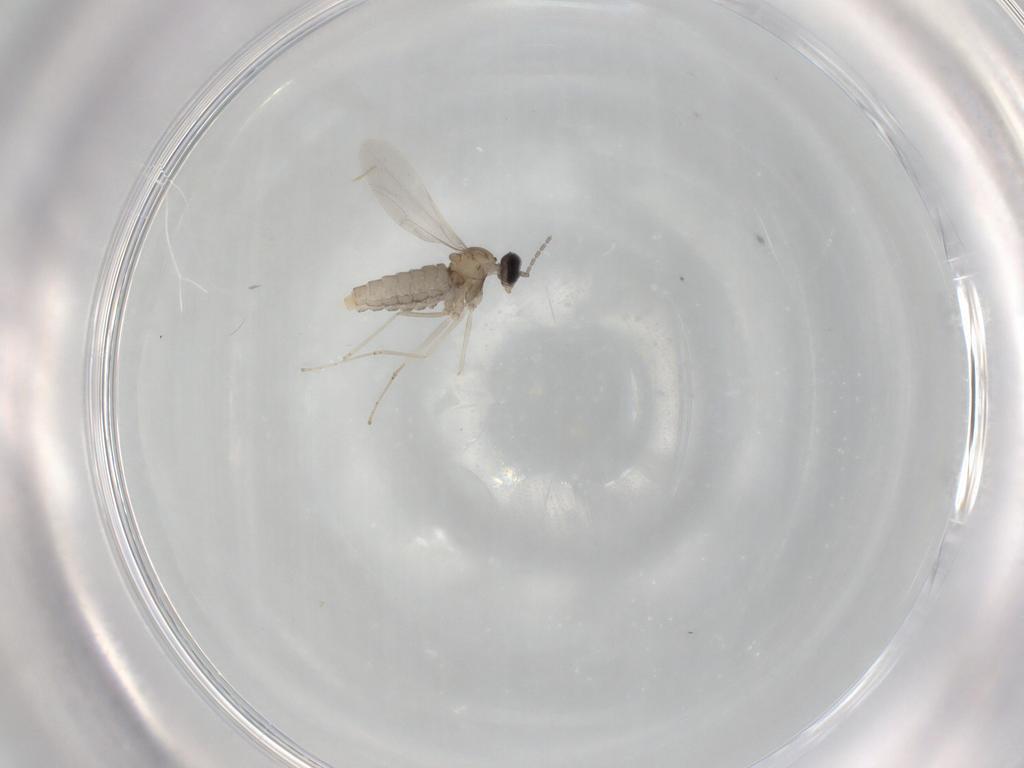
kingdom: Animalia
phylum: Arthropoda
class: Insecta
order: Diptera
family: Cecidomyiidae
